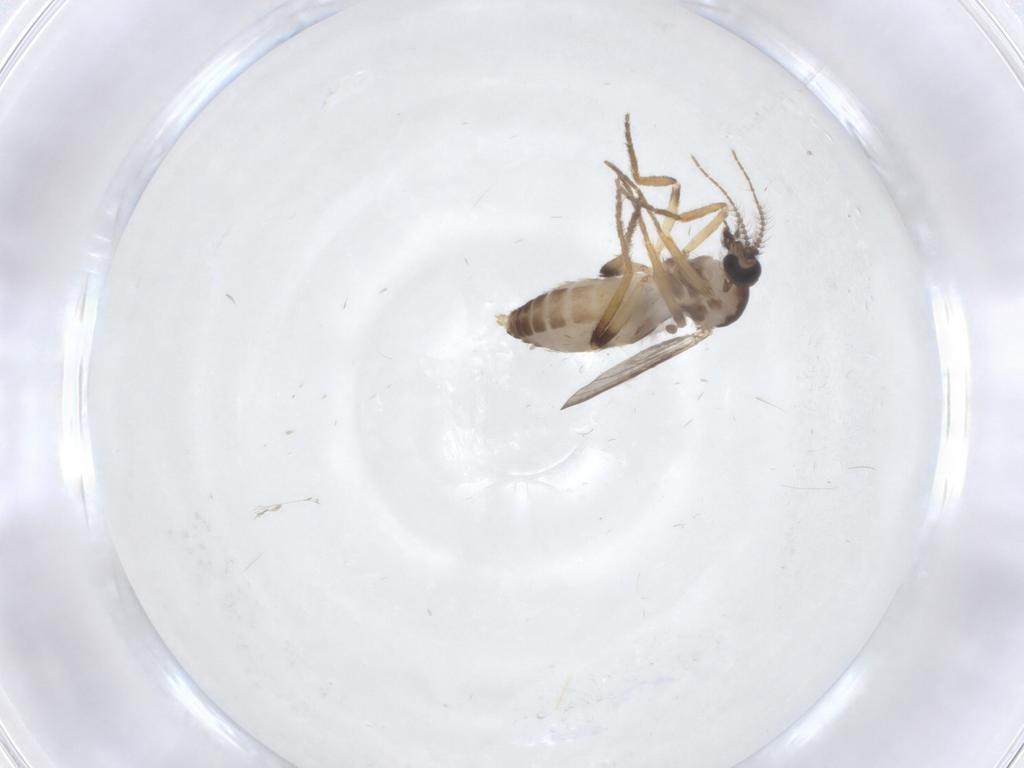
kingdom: Animalia
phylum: Arthropoda
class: Insecta
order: Diptera
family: Ceratopogonidae
